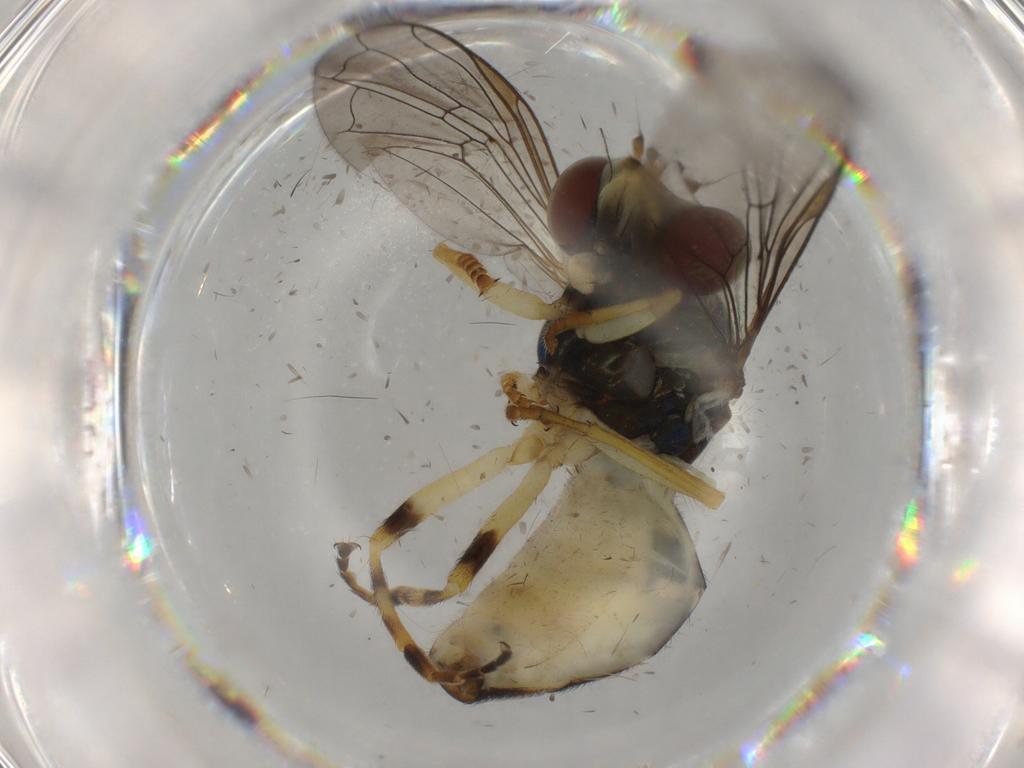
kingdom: Animalia
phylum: Arthropoda
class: Insecta
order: Diptera
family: Syrphidae
